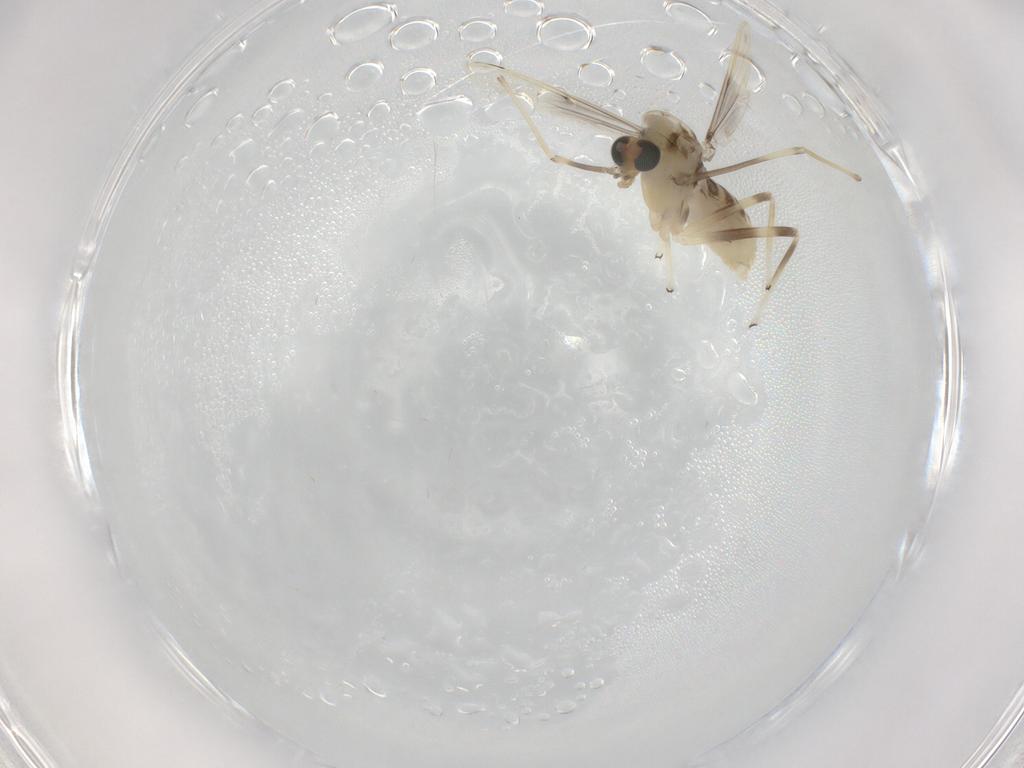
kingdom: Animalia
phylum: Arthropoda
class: Insecta
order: Diptera
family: Chironomidae
